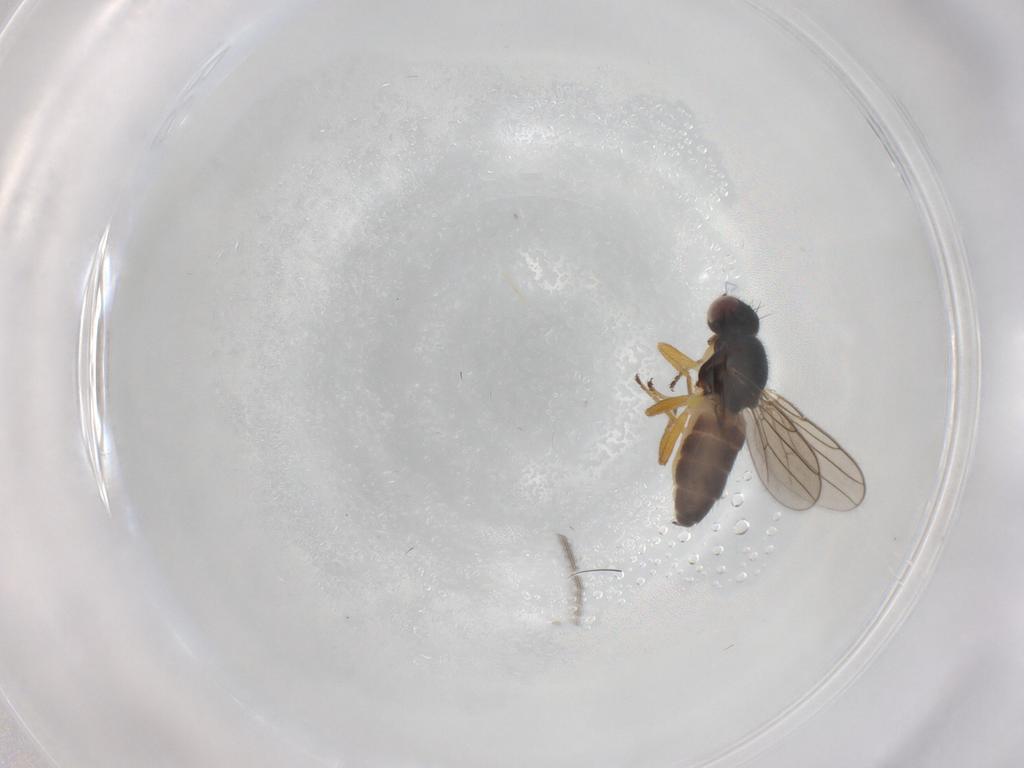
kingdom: Animalia
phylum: Arthropoda
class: Insecta
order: Diptera
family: Chloropidae
